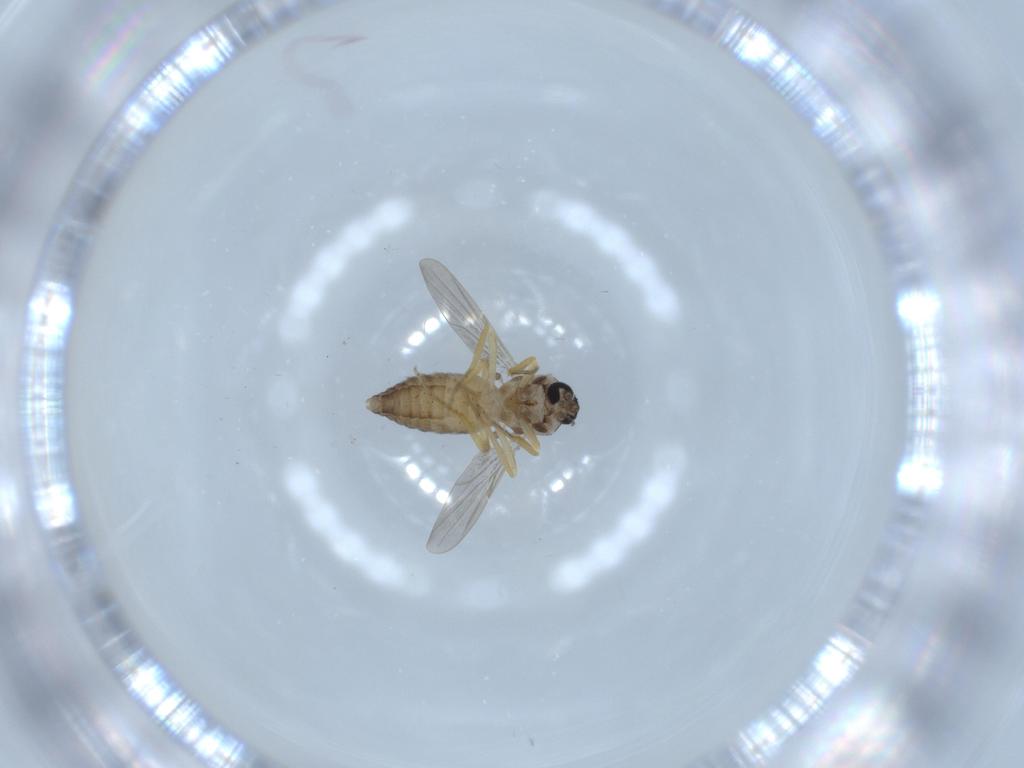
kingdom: Animalia
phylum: Arthropoda
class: Insecta
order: Diptera
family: Ceratopogonidae
